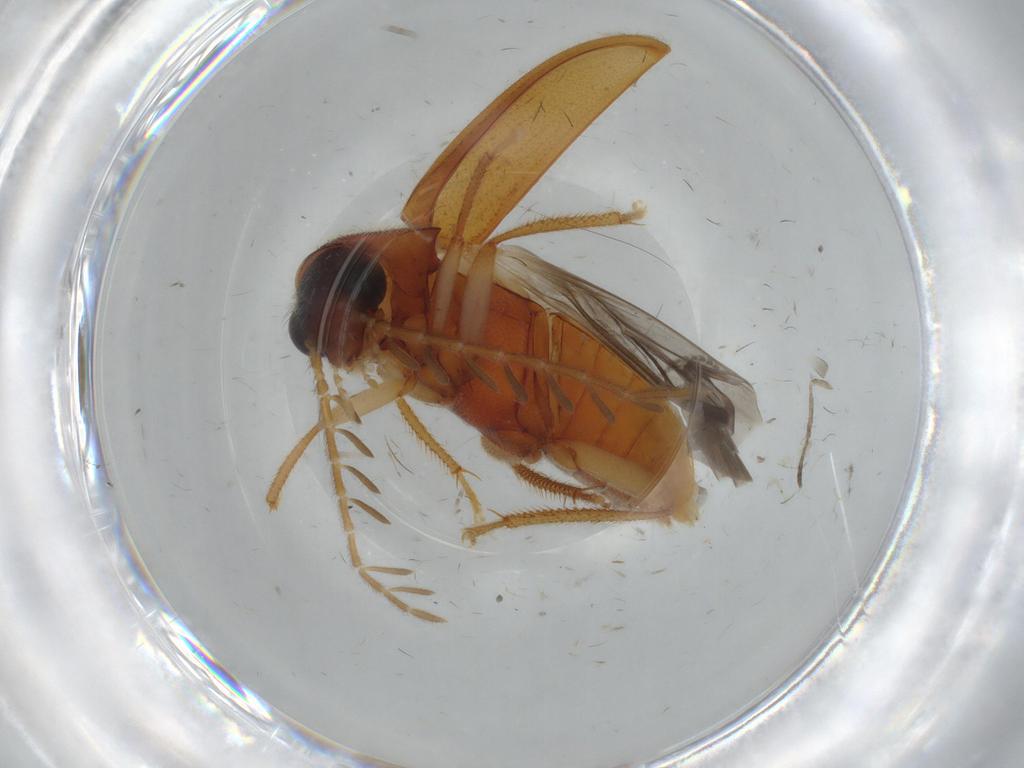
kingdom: Animalia
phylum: Arthropoda
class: Insecta
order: Coleoptera
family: Ptilodactylidae
